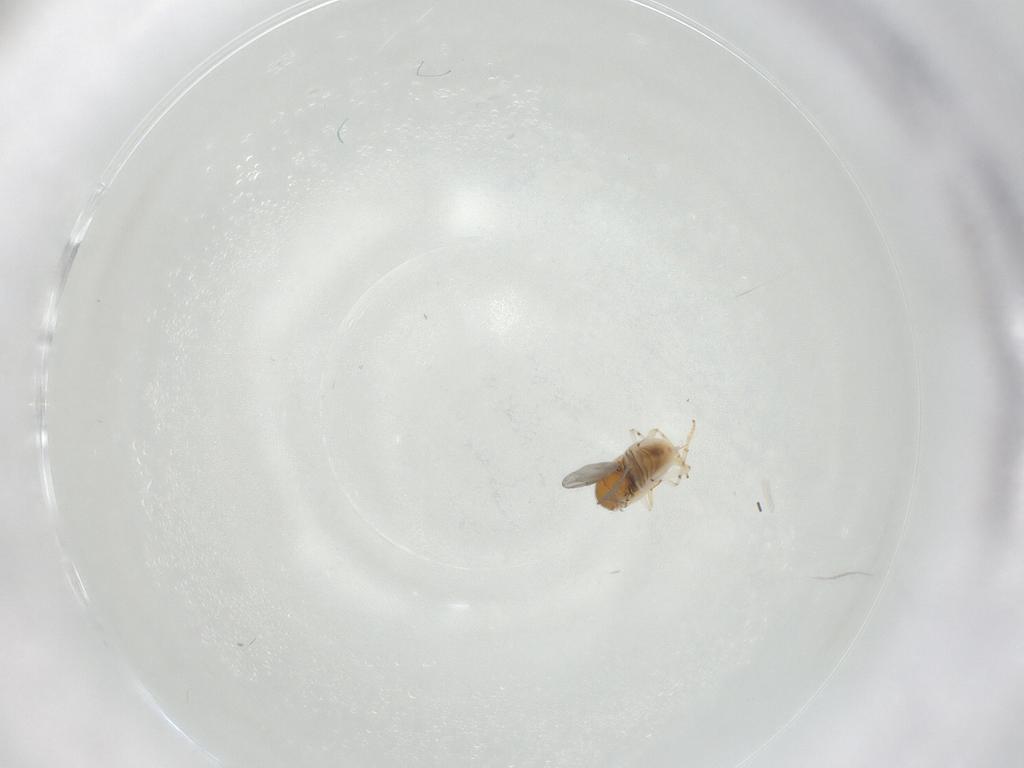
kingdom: Animalia
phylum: Arthropoda
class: Insecta
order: Hymenoptera
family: Encyrtidae
